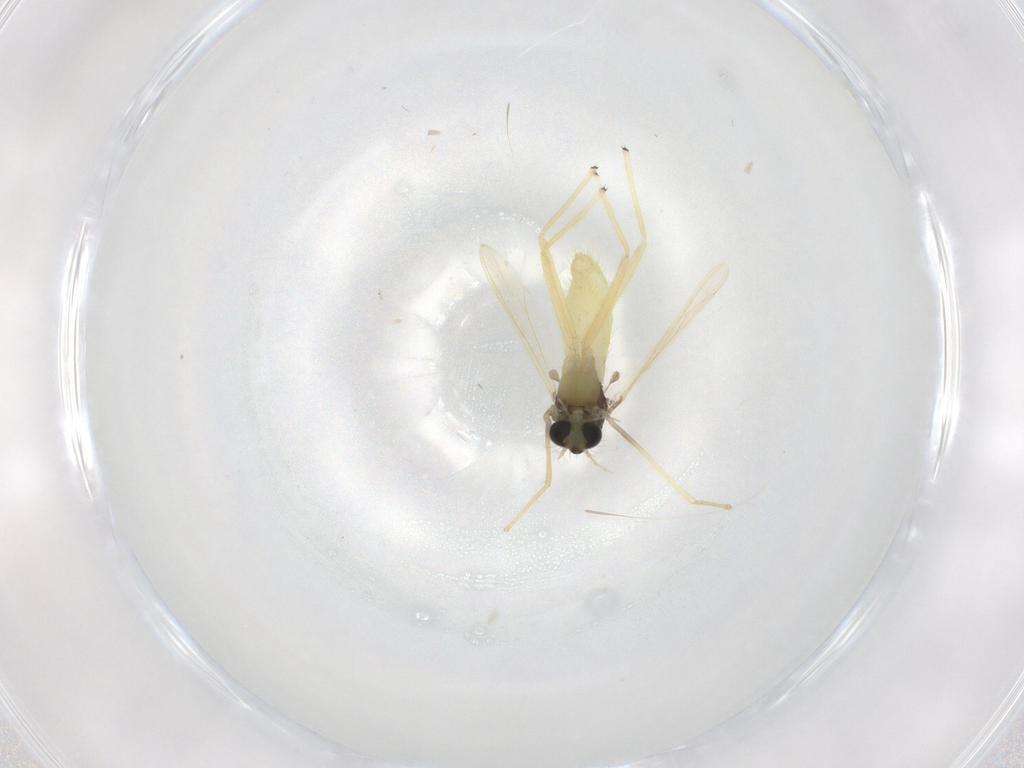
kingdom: Animalia
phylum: Arthropoda
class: Insecta
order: Diptera
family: Chironomidae
